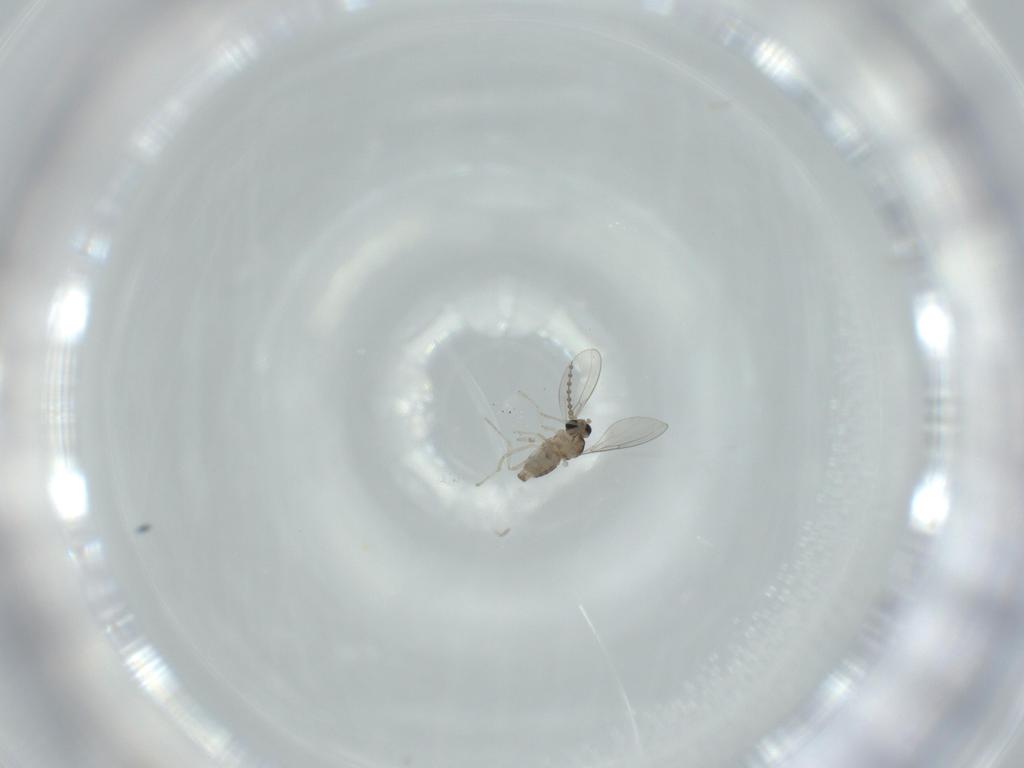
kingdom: Animalia
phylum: Arthropoda
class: Insecta
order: Diptera
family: Cecidomyiidae
